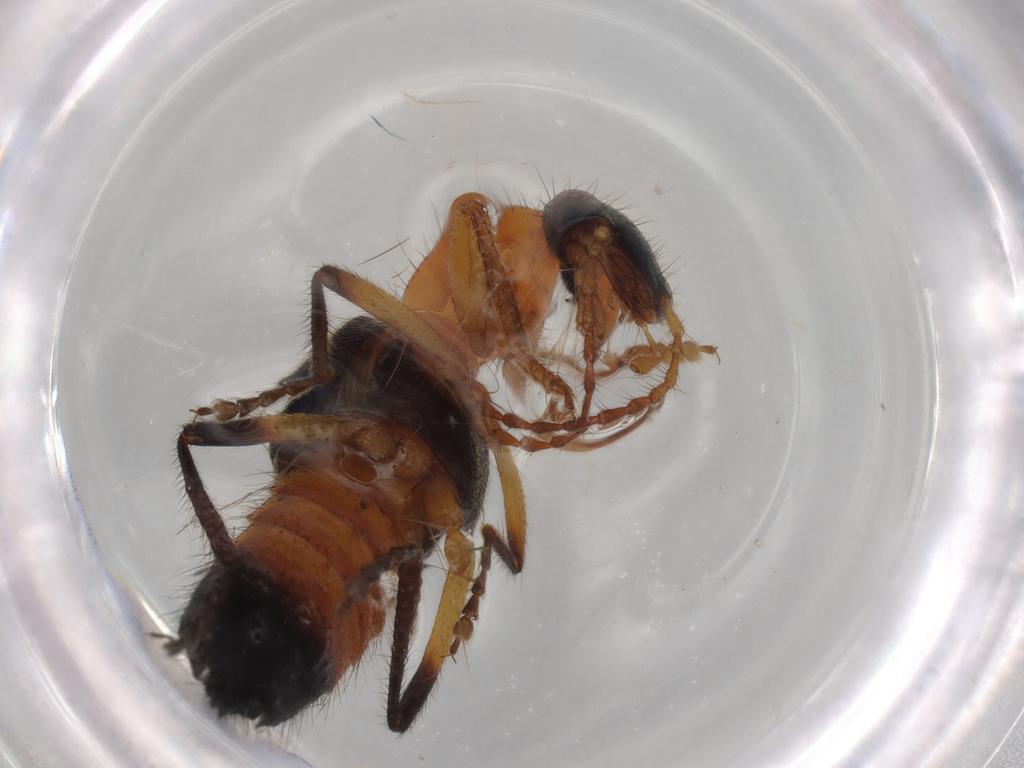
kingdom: Animalia
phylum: Arthropoda
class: Insecta
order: Coleoptera
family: Staphylinidae
